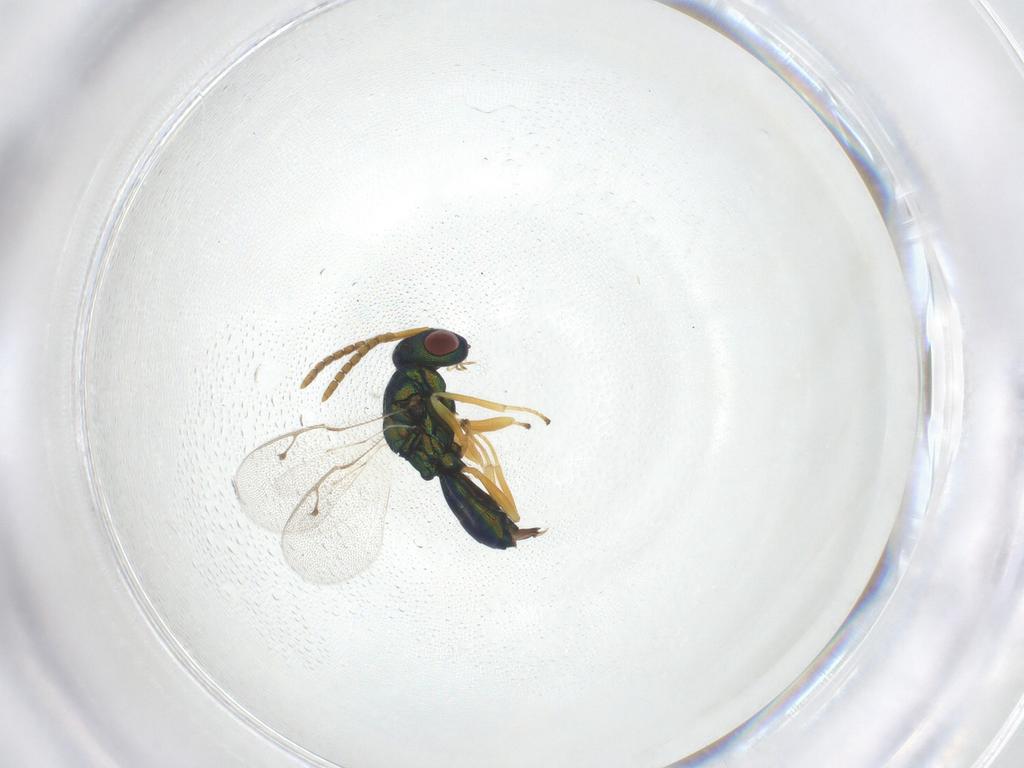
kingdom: Animalia
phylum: Arthropoda
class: Insecta
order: Hymenoptera
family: Pteromalidae
